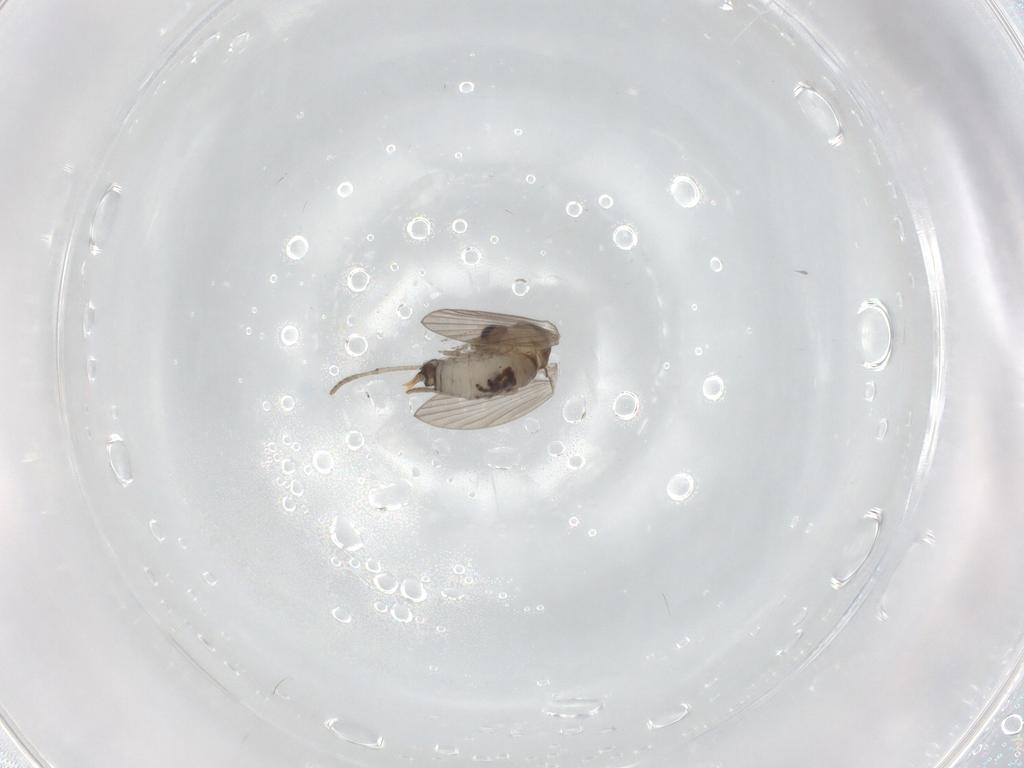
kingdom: Animalia
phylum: Arthropoda
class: Insecta
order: Diptera
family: Psychodidae
